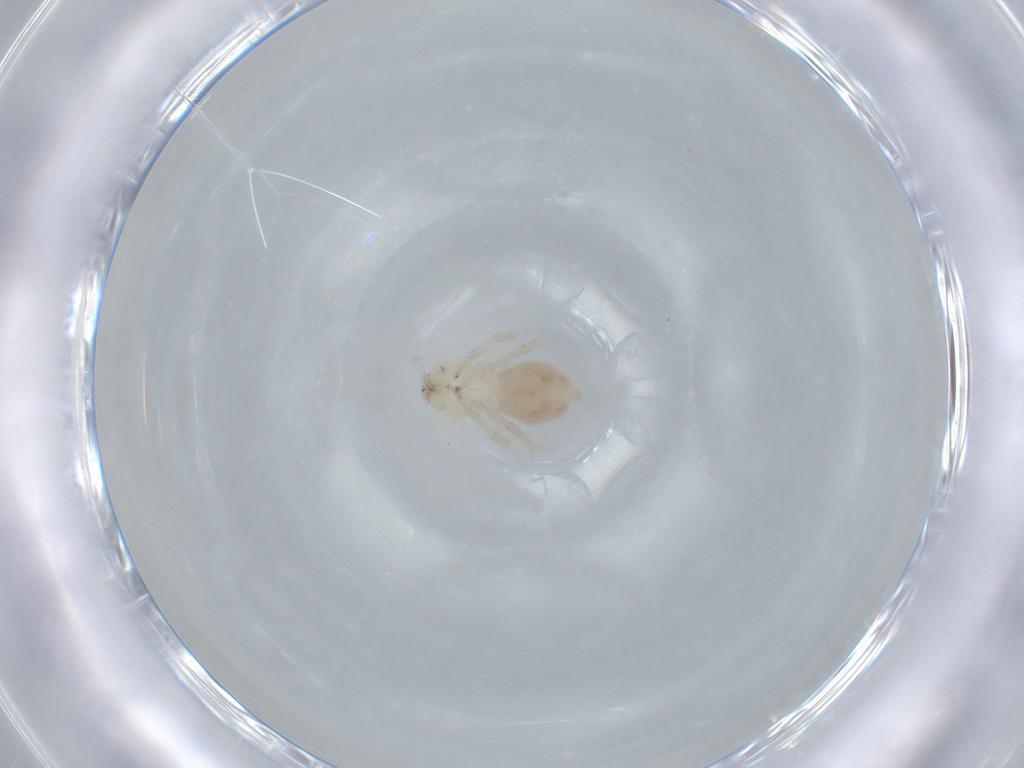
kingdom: Animalia
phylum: Arthropoda
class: Arachnida
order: Araneae
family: Anyphaenidae
